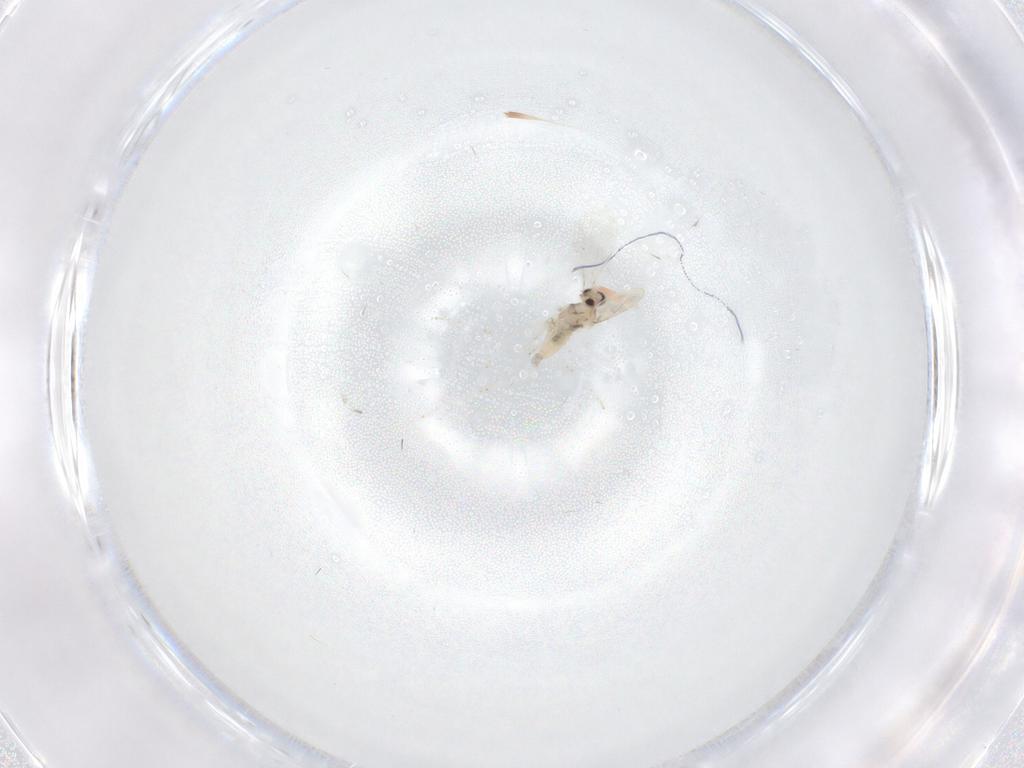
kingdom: Animalia
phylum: Arthropoda
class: Insecta
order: Diptera
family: Cecidomyiidae
